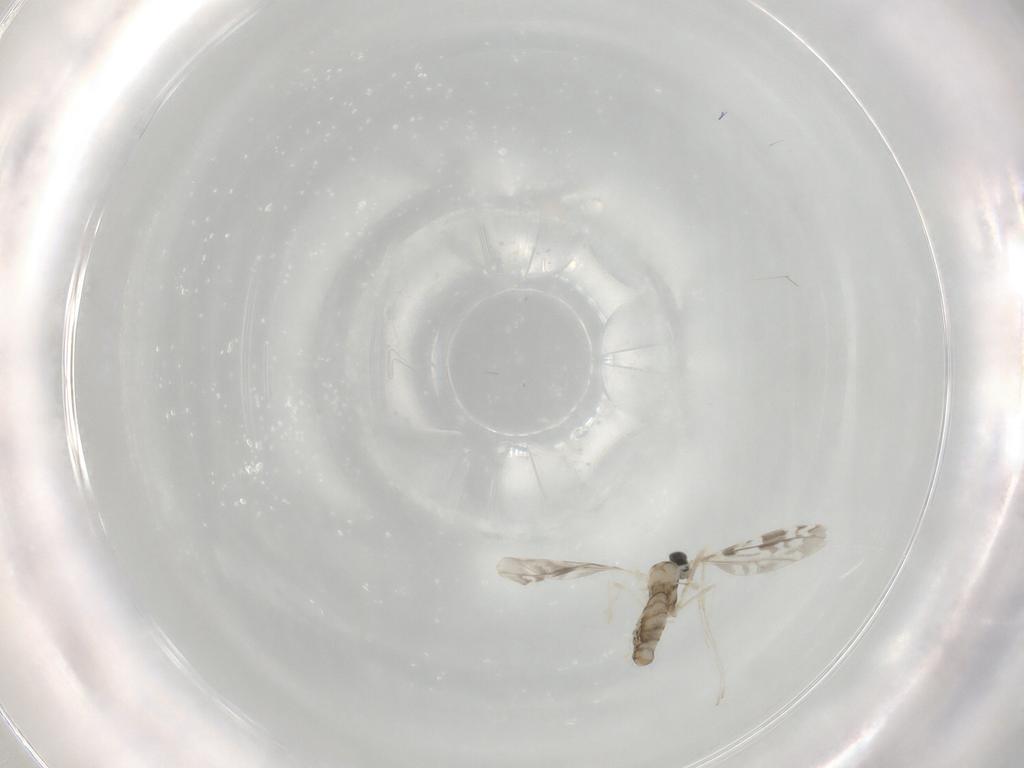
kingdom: Animalia
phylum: Arthropoda
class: Insecta
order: Diptera
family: Cecidomyiidae
